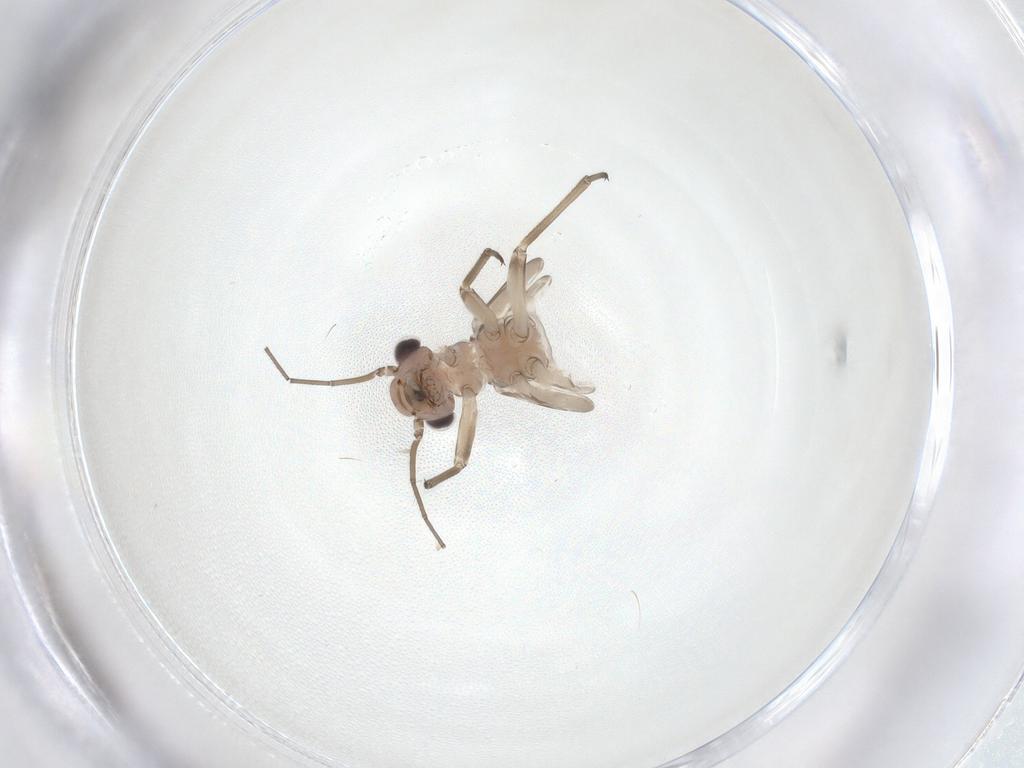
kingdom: Animalia
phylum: Arthropoda
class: Insecta
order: Psocodea
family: Myopsocidae
